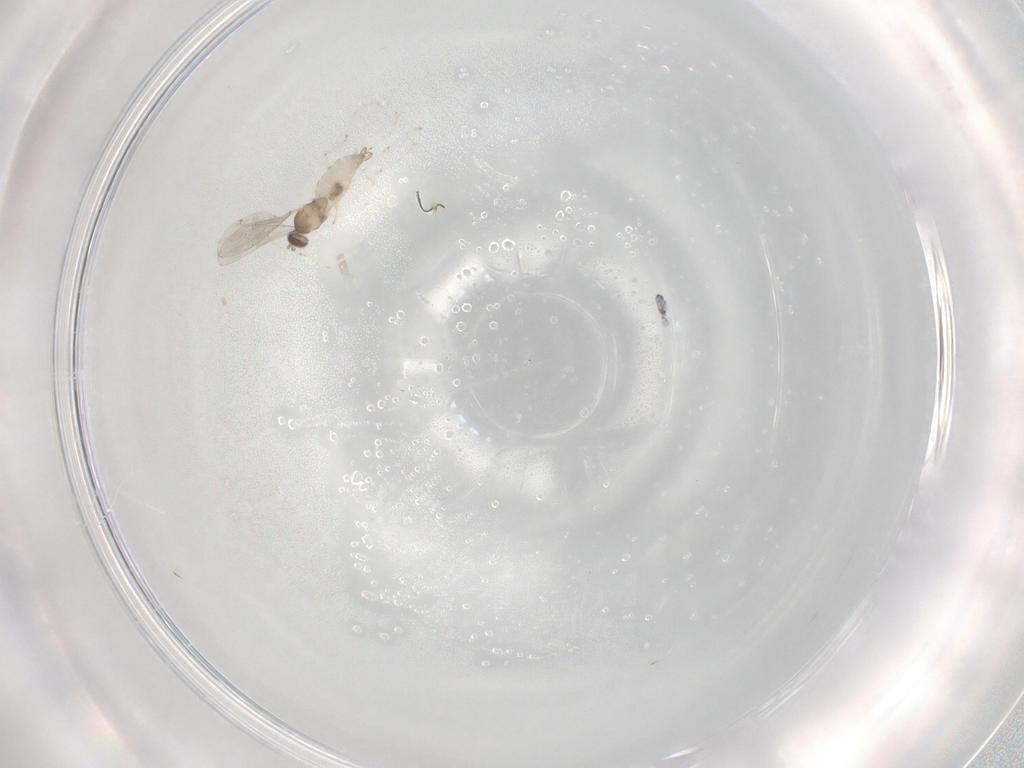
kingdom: Animalia
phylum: Arthropoda
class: Insecta
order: Diptera
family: Cecidomyiidae
